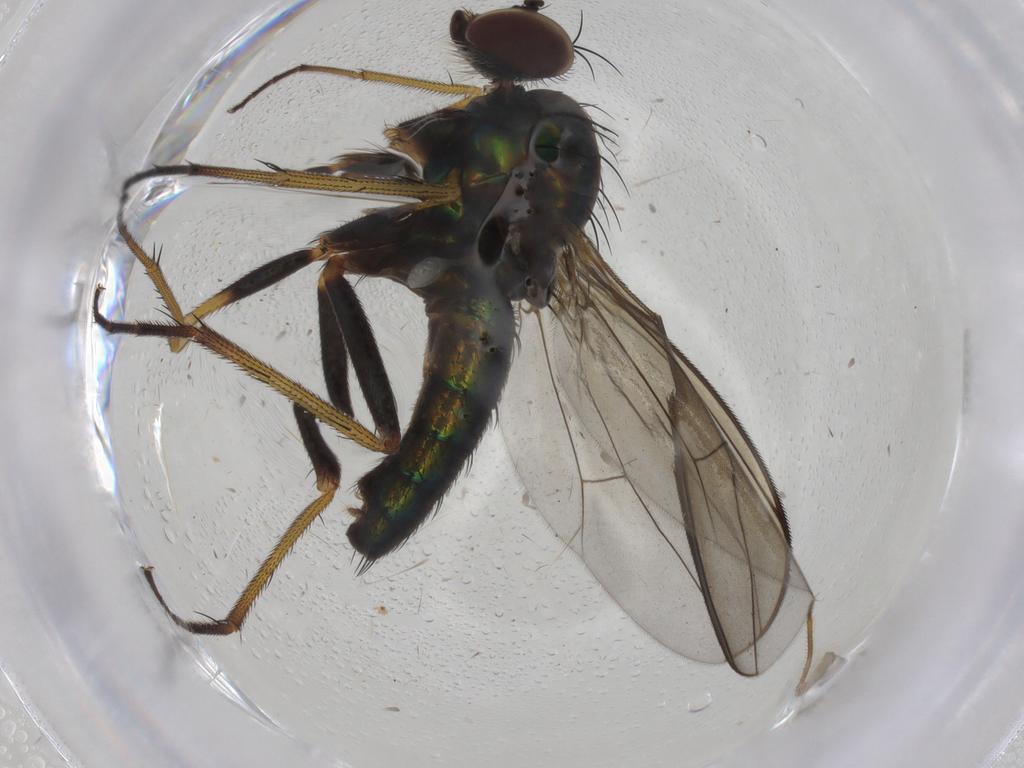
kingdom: Animalia
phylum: Arthropoda
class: Insecta
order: Diptera
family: Dolichopodidae
